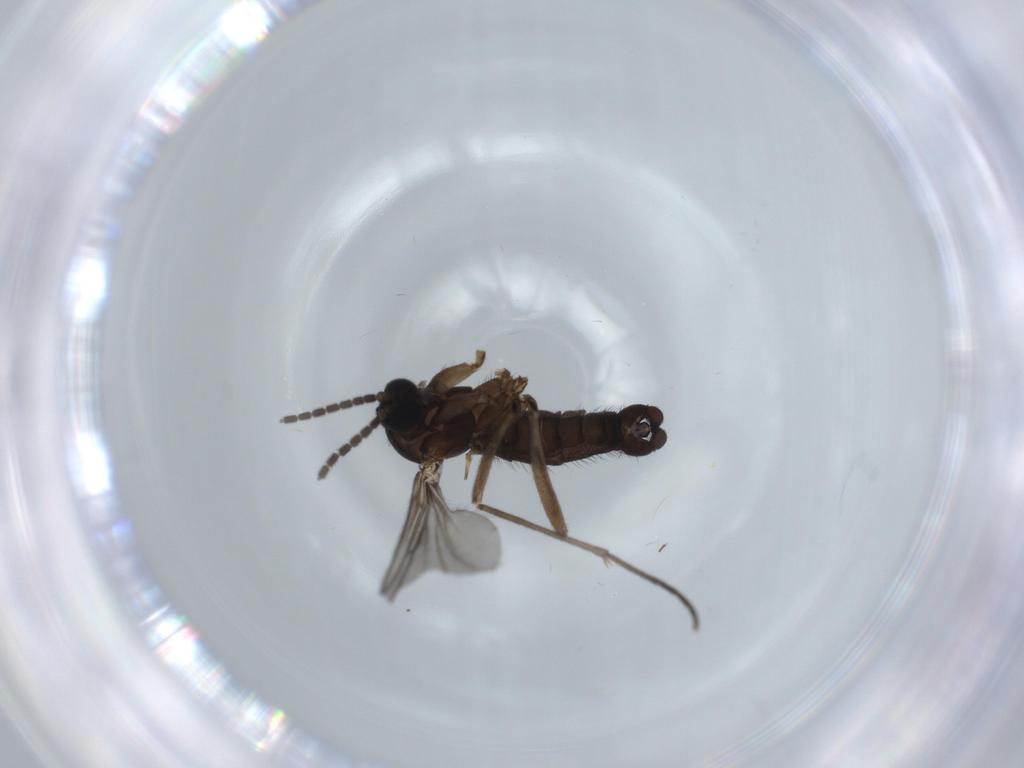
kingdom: Animalia
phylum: Arthropoda
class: Insecta
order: Diptera
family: Sciaridae
